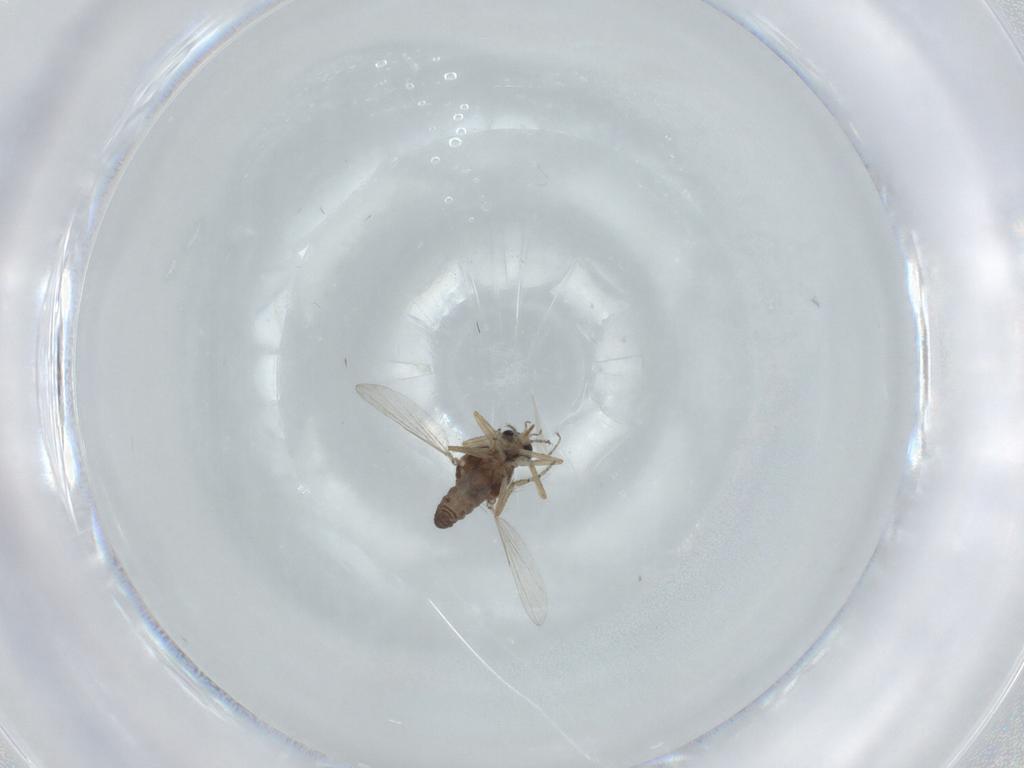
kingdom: Animalia
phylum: Arthropoda
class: Insecta
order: Diptera
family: Ceratopogonidae
